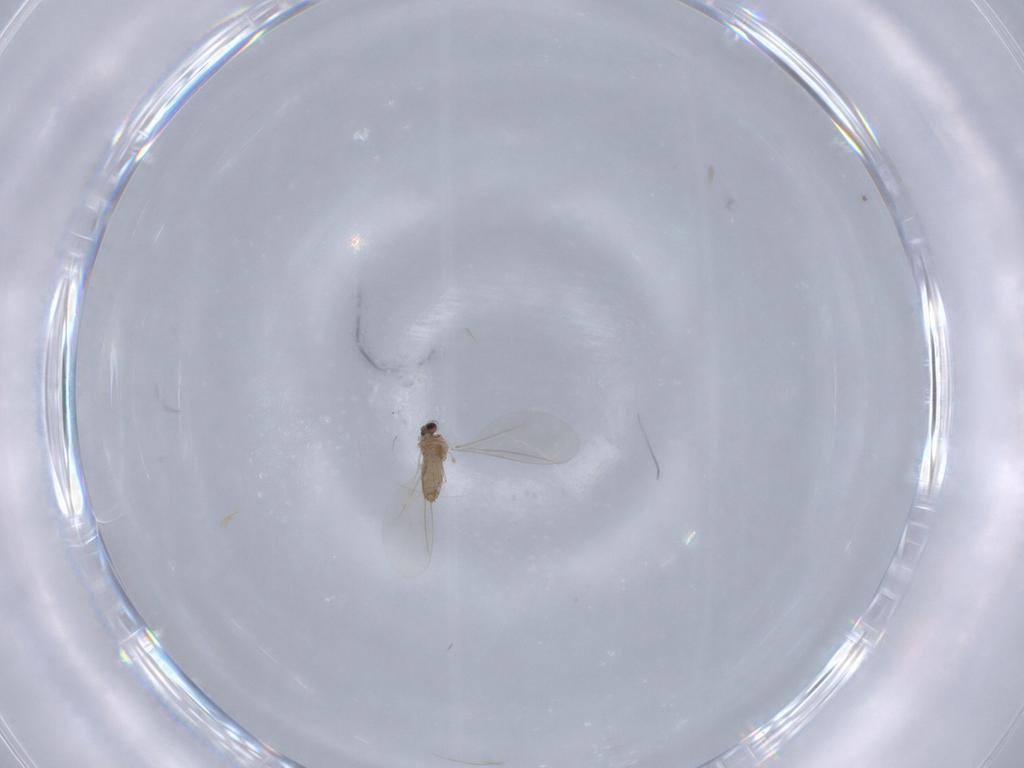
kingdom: Animalia
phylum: Arthropoda
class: Insecta
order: Diptera
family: Cecidomyiidae
